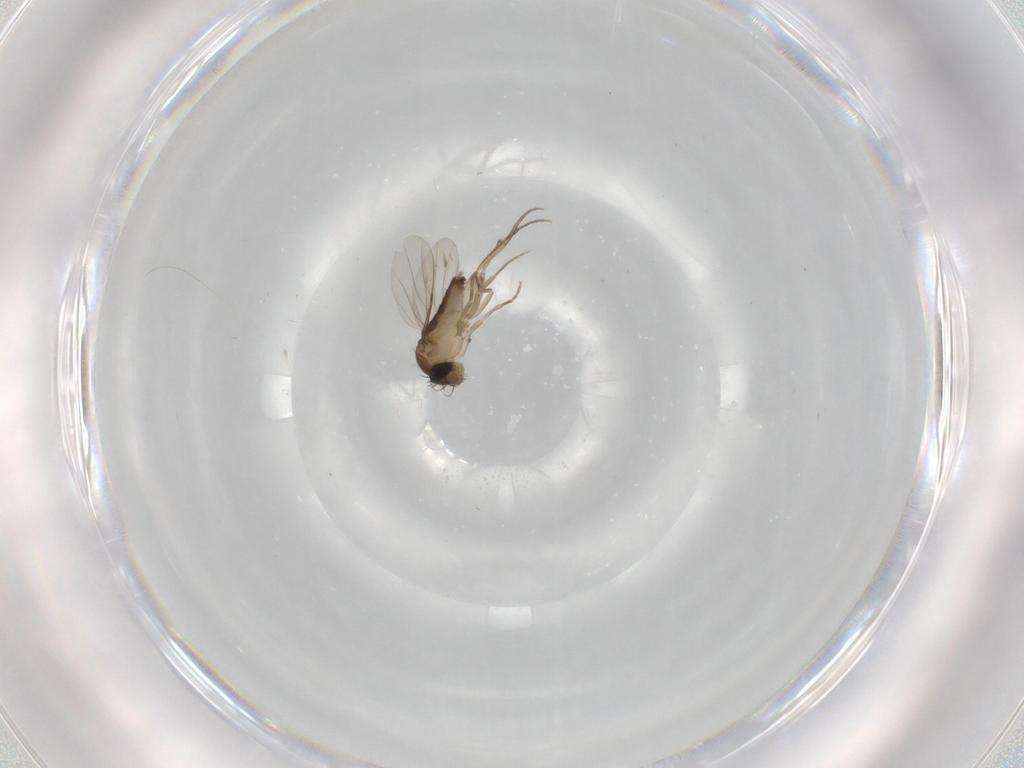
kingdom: Animalia
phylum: Arthropoda
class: Insecta
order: Diptera
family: Phoridae
